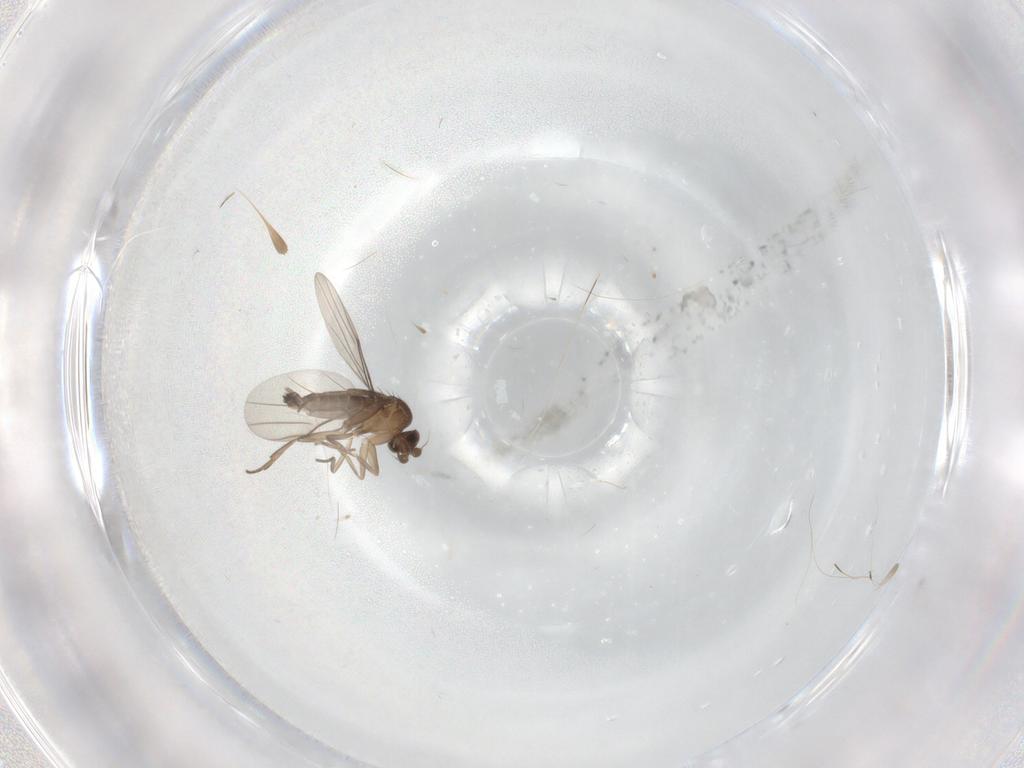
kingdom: Animalia
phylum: Arthropoda
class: Insecta
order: Diptera
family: Phoridae
